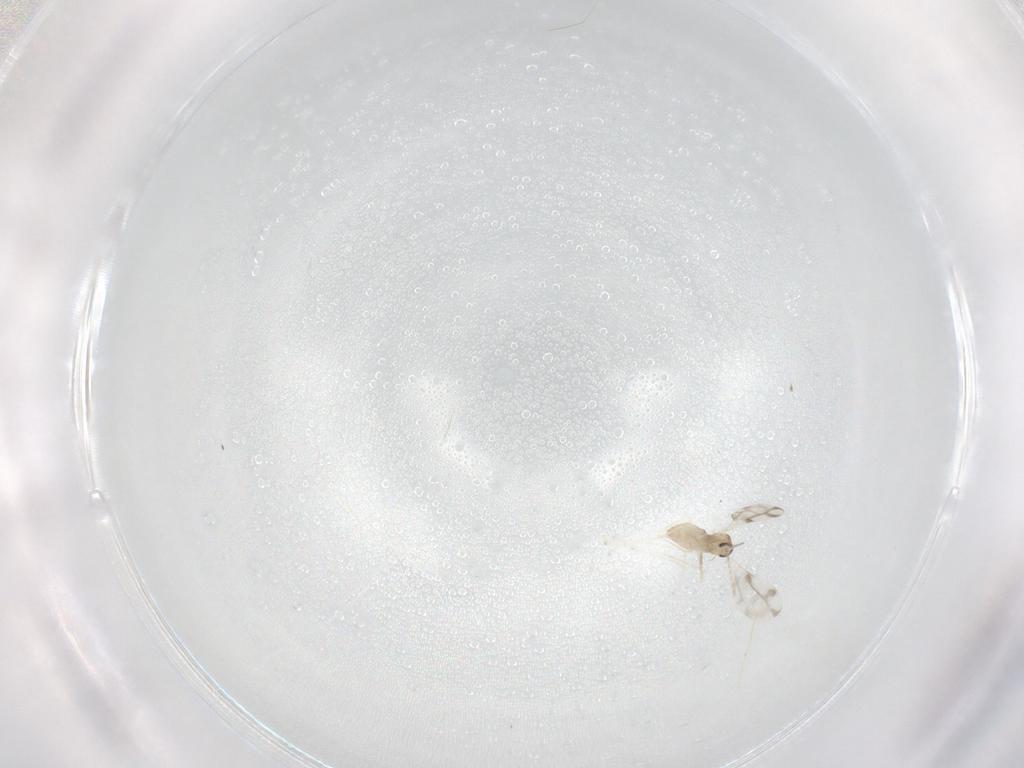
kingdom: Animalia
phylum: Arthropoda
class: Insecta
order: Diptera
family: Cecidomyiidae
